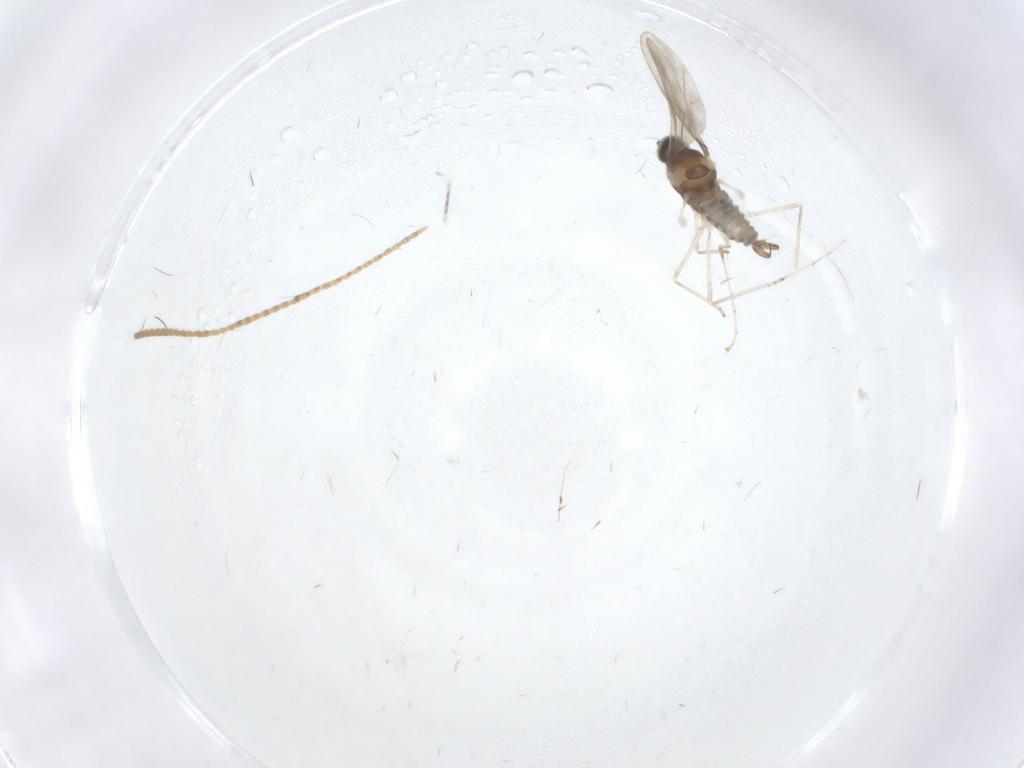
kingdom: Animalia
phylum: Arthropoda
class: Insecta
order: Diptera
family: Cecidomyiidae
